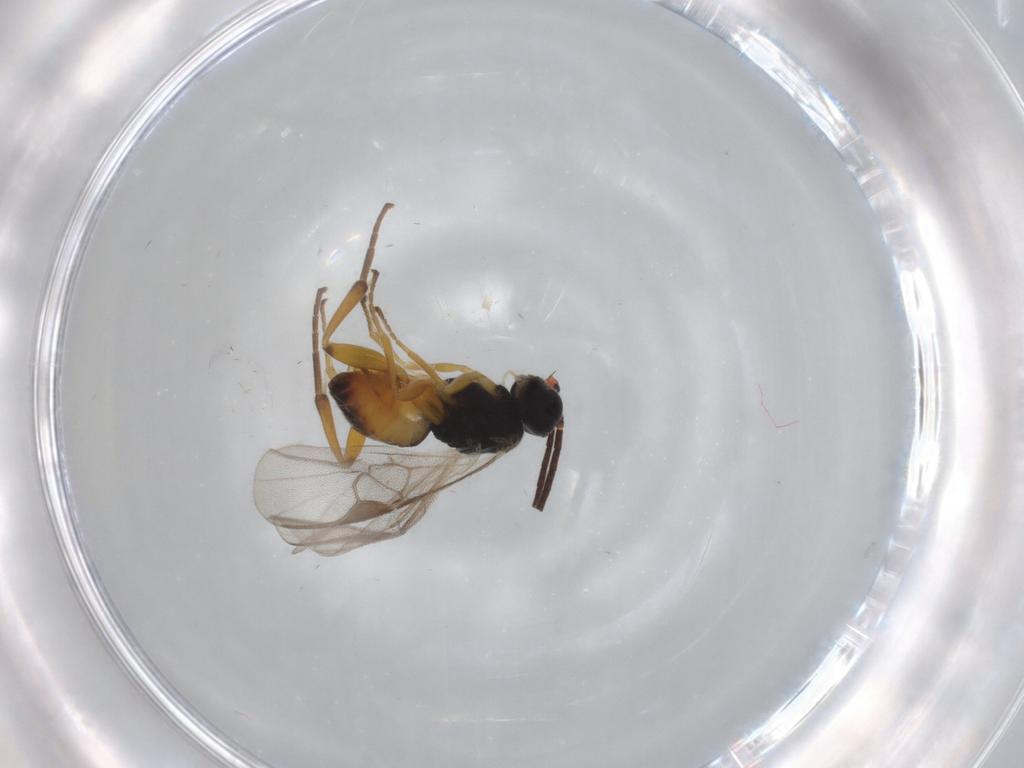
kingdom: Animalia
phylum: Arthropoda
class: Insecta
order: Hymenoptera
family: Braconidae
